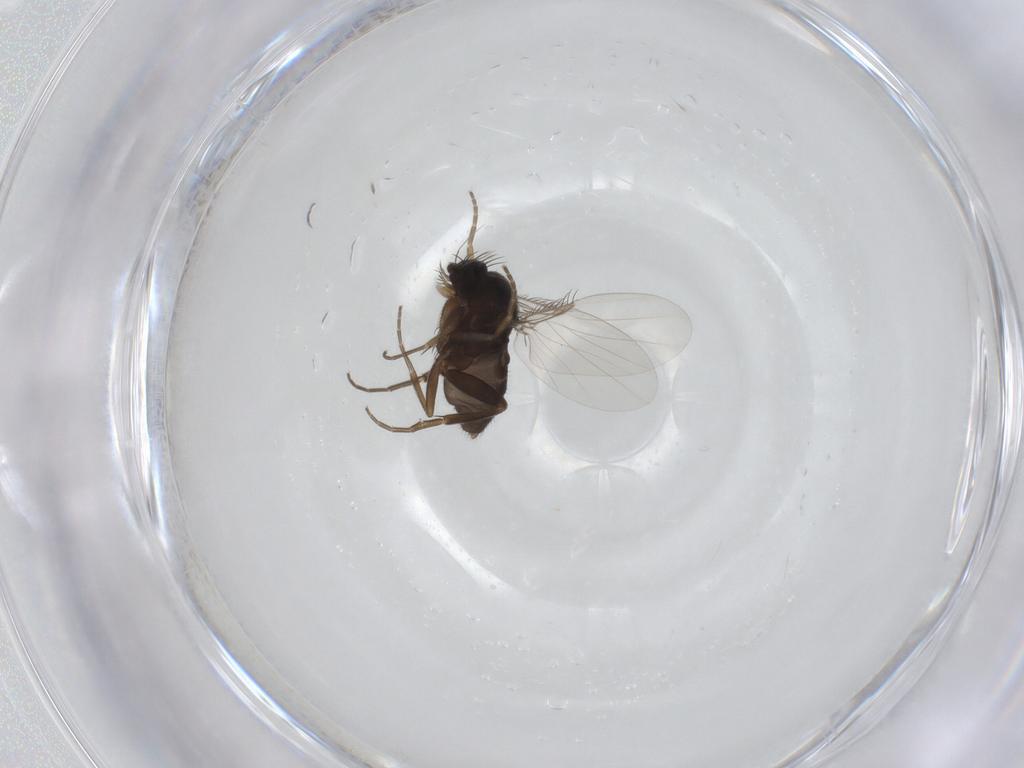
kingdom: Animalia
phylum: Arthropoda
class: Insecta
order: Diptera
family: Phoridae
